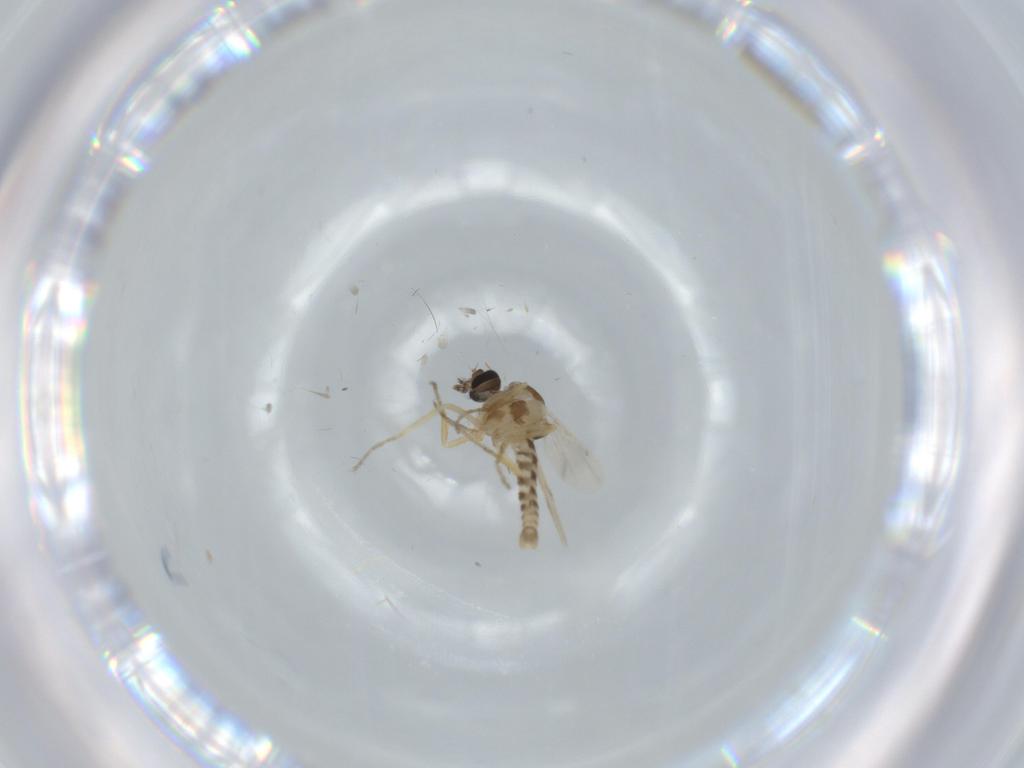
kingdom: Animalia
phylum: Arthropoda
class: Insecta
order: Diptera
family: Ceratopogonidae
